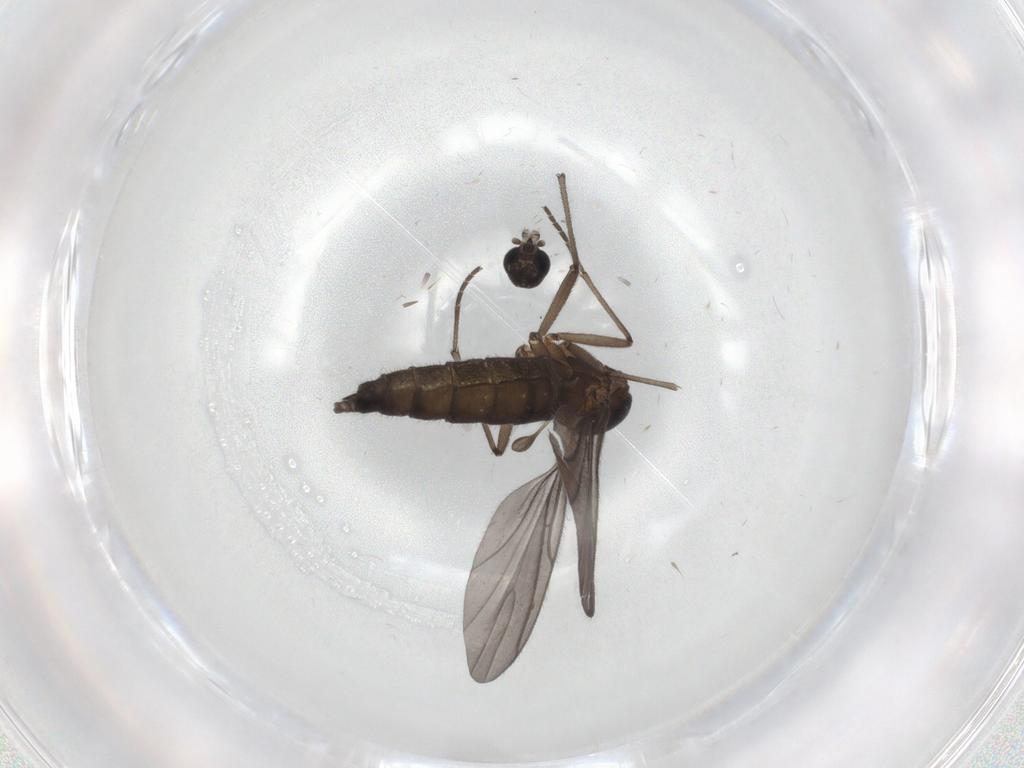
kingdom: Animalia
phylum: Arthropoda
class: Insecta
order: Diptera
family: Sciaridae
